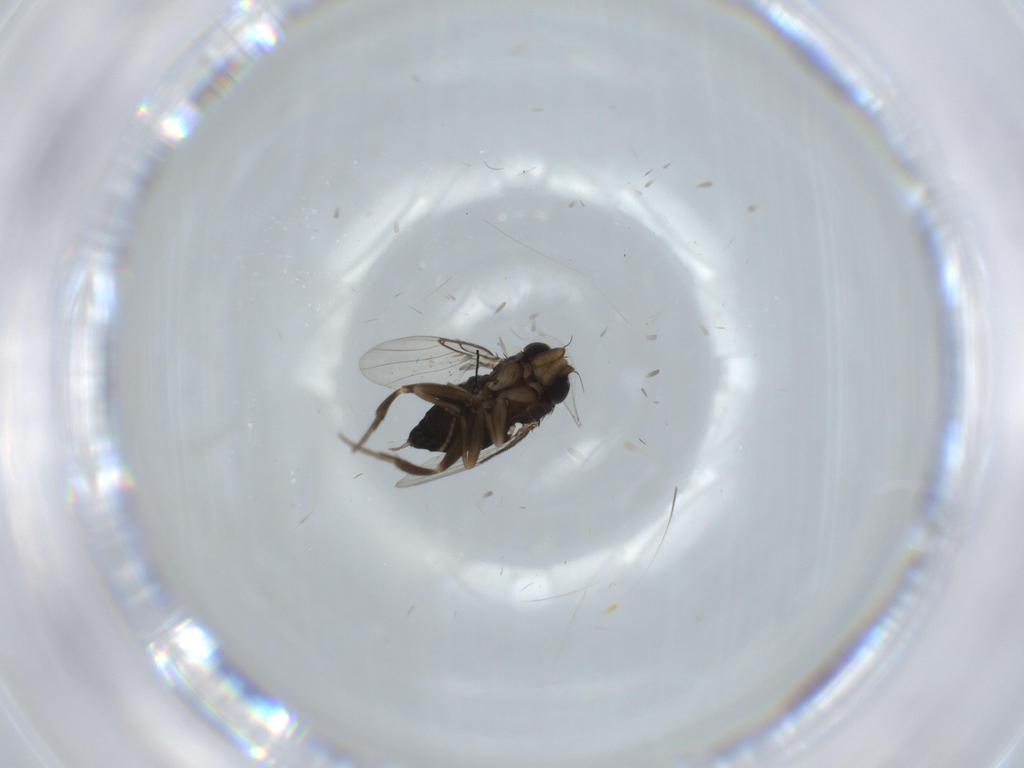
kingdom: Animalia
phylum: Arthropoda
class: Insecta
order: Diptera
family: Phoridae
